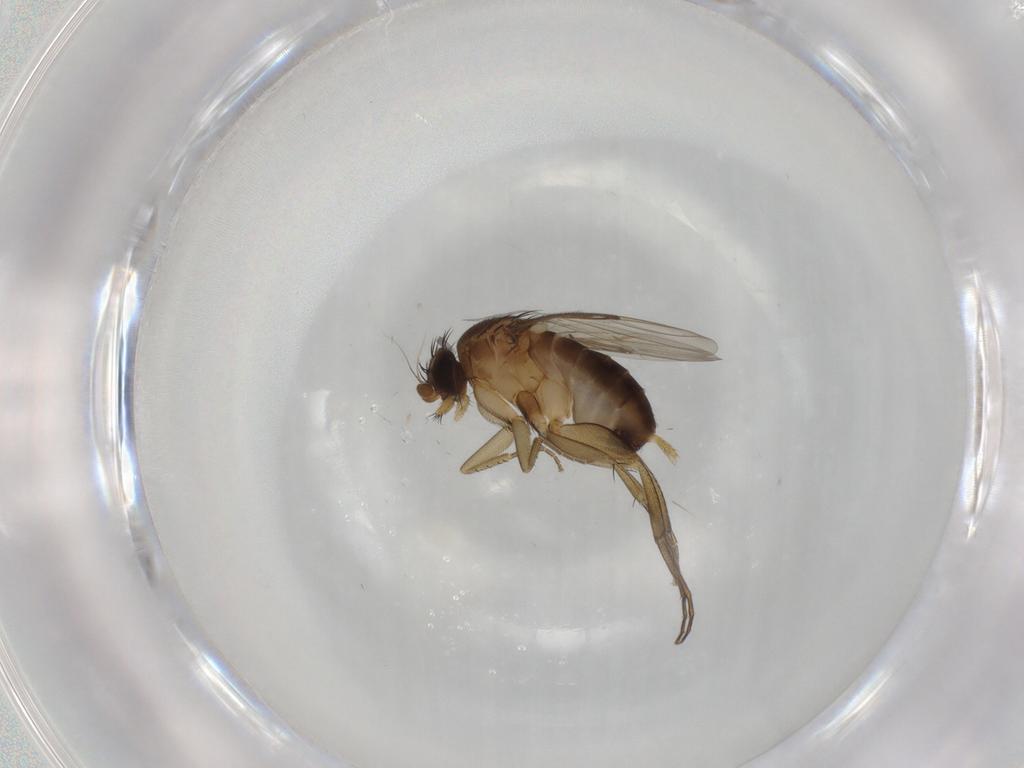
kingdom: Animalia
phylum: Arthropoda
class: Insecta
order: Diptera
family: Phoridae
